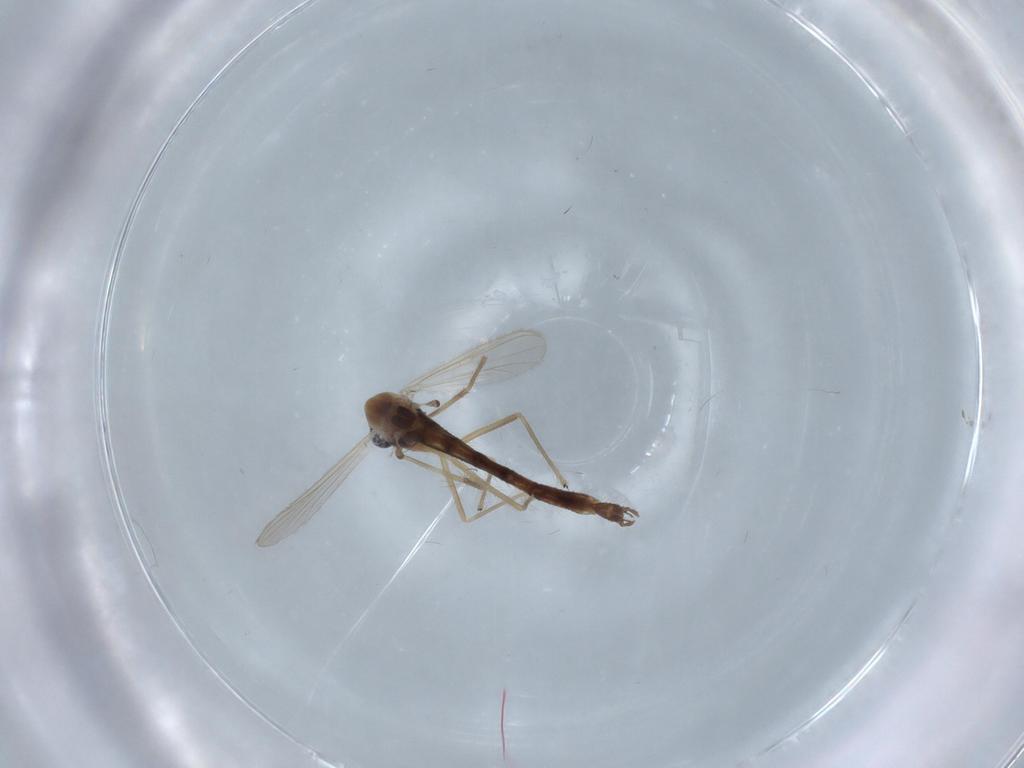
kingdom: Animalia
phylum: Arthropoda
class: Insecta
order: Diptera
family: Chironomidae
